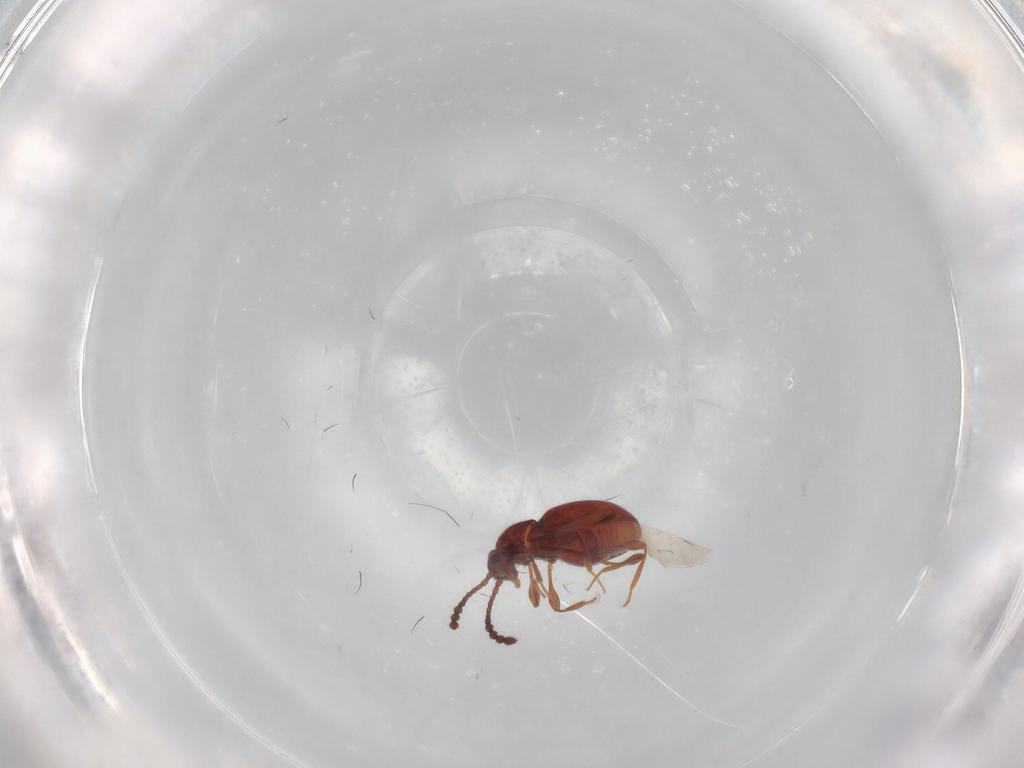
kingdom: Animalia
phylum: Arthropoda
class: Insecta
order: Coleoptera
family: Staphylinidae
